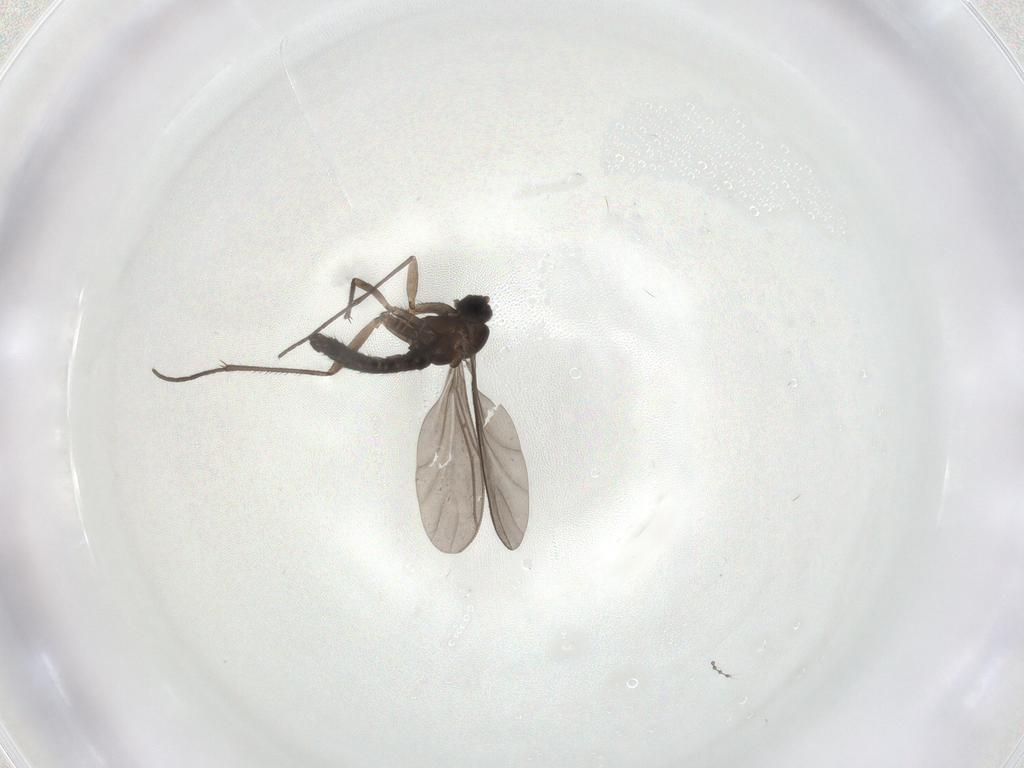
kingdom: Animalia
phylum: Arthropoda
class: Insecta
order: Diptera
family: Sciaridae
